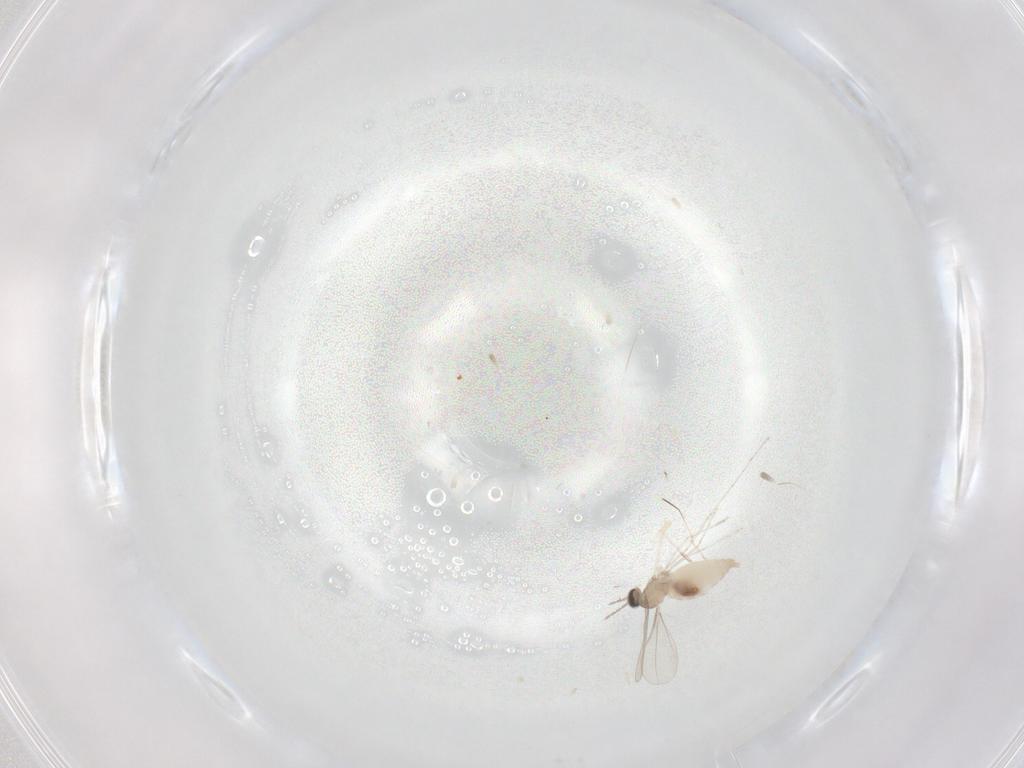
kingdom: Animalia
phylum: Arthropoda
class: Insecta
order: Diptera
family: Cecidomyiidae
